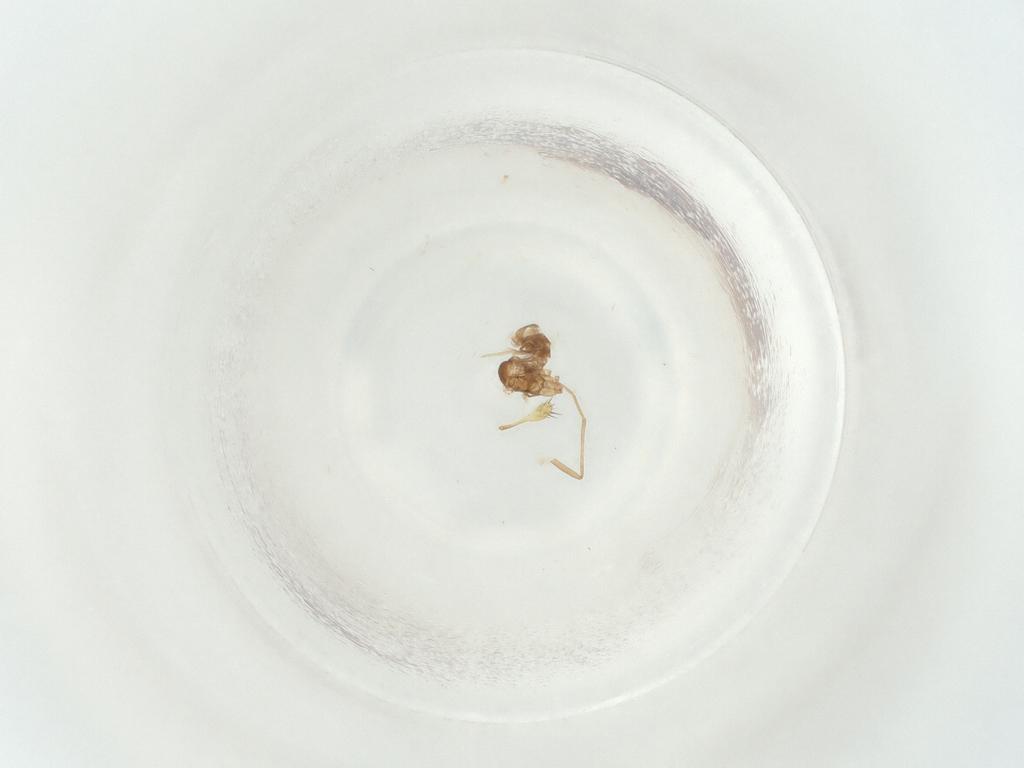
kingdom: Animalia
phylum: Arthropoda
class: Insecta
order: Diptera
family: Sciaridae
